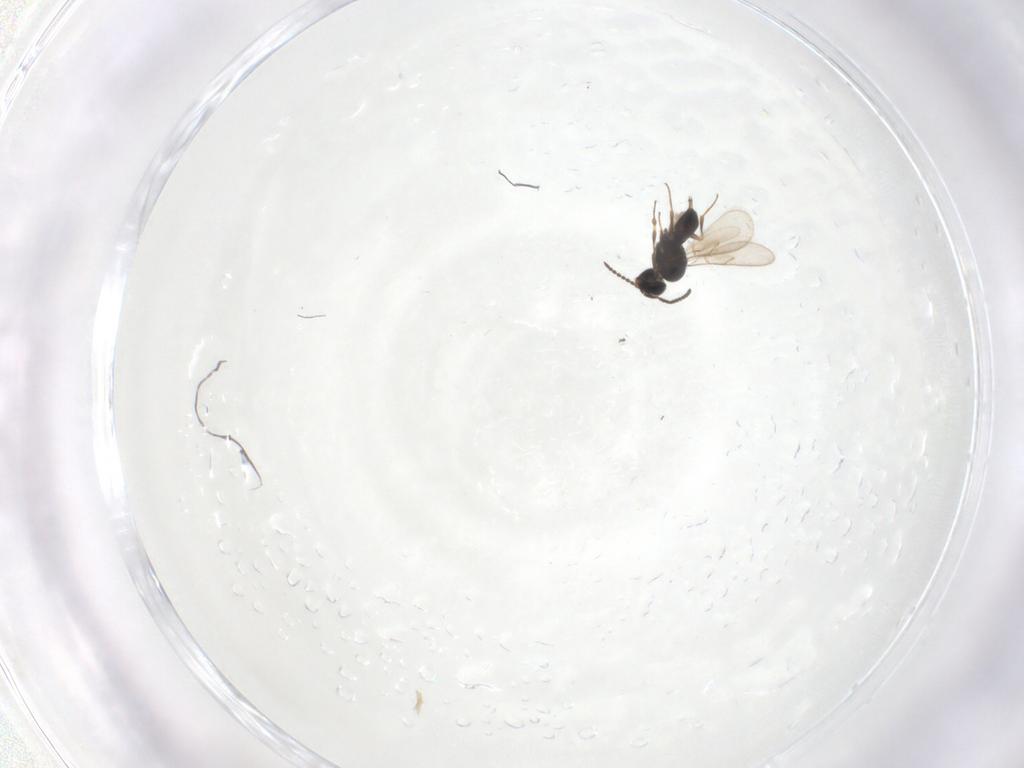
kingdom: Animalia
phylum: Arthropoda
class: Insecta
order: Hymenoptera
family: Scelionidae
